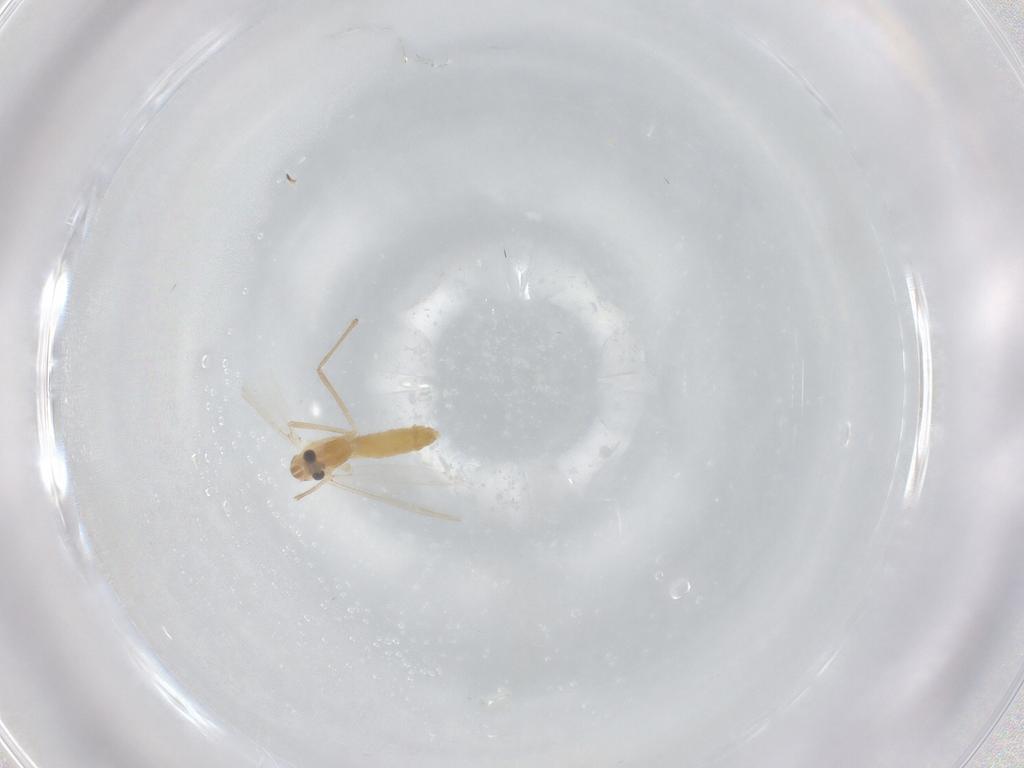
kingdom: Animalia
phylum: Arthropoda
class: Insecta
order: Diptera
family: Chironomidae
